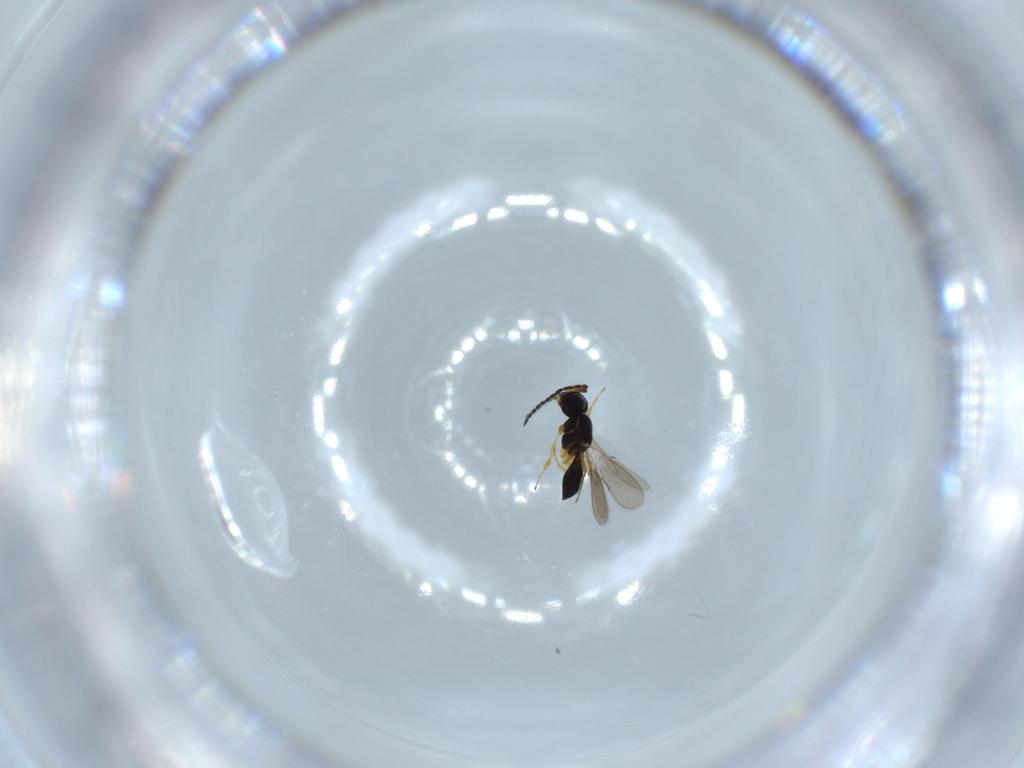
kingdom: Animalia
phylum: Arthropoda
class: Insecta
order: Hymenoptera
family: Scelionidae
